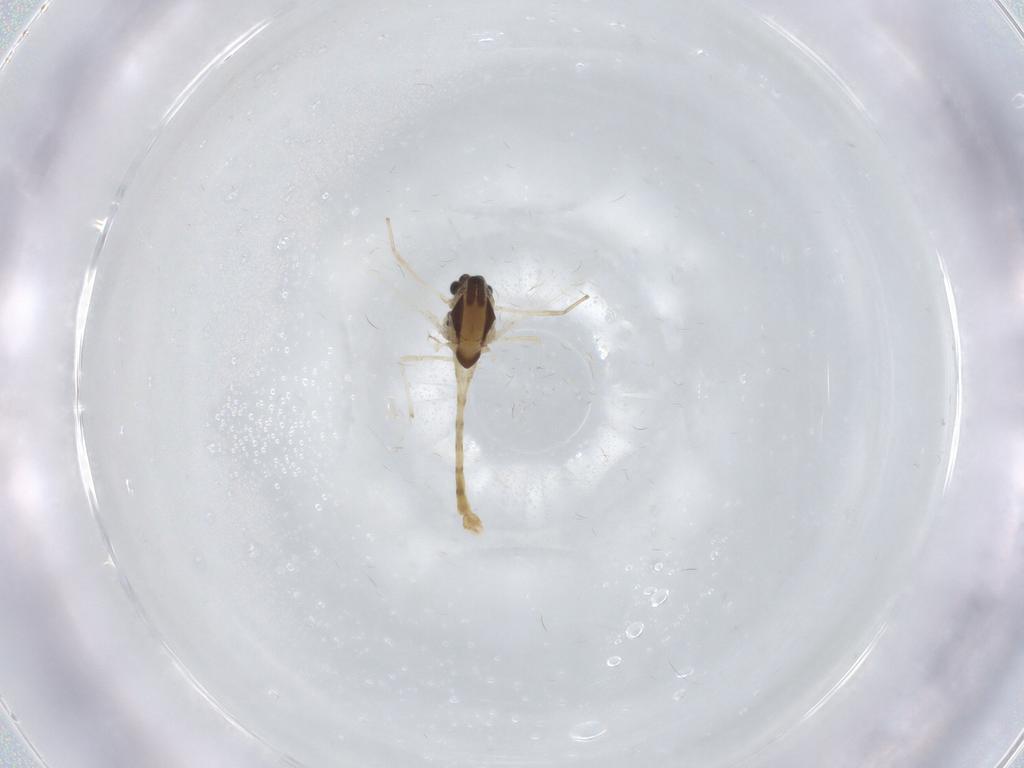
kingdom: Animalia
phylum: Arthropoda
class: Insecta
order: Diptera
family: Chironomidae
